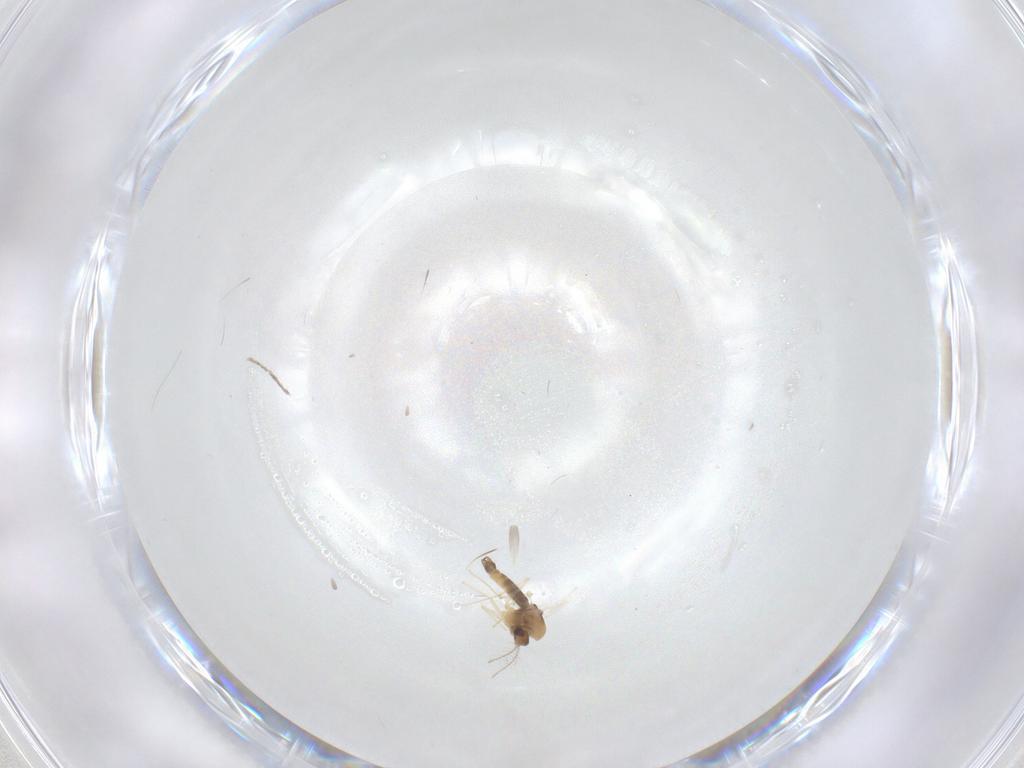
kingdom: Animalia
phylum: Arthropoda
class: Insecta
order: Diptera
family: Chironomidae
